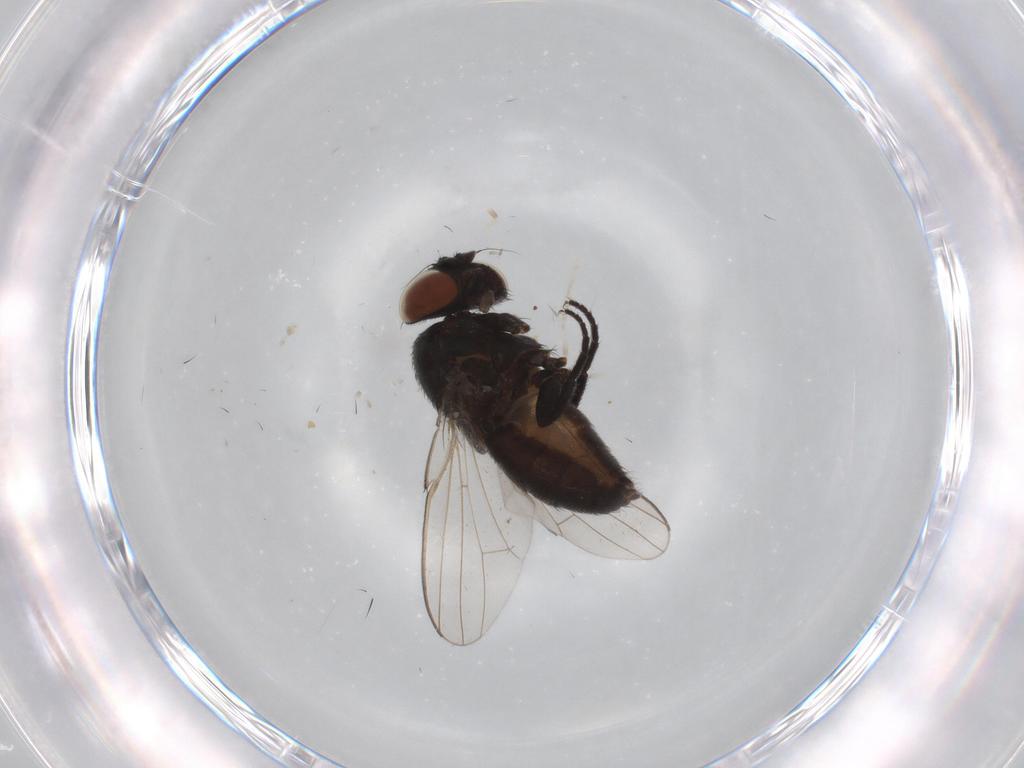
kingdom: Animalia
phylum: Arthropoda
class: Insecta
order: Diptera
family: Milichiidae
